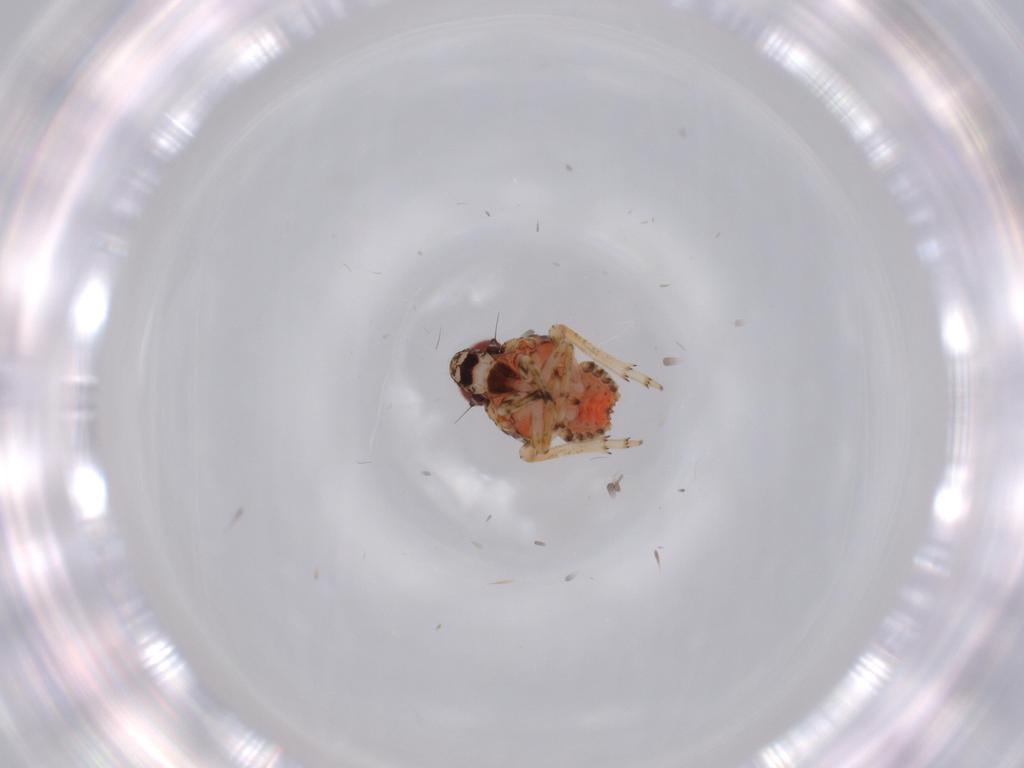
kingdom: Animalia
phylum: Arthropoda
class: Insecta
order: Hemiptera
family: Issidae
